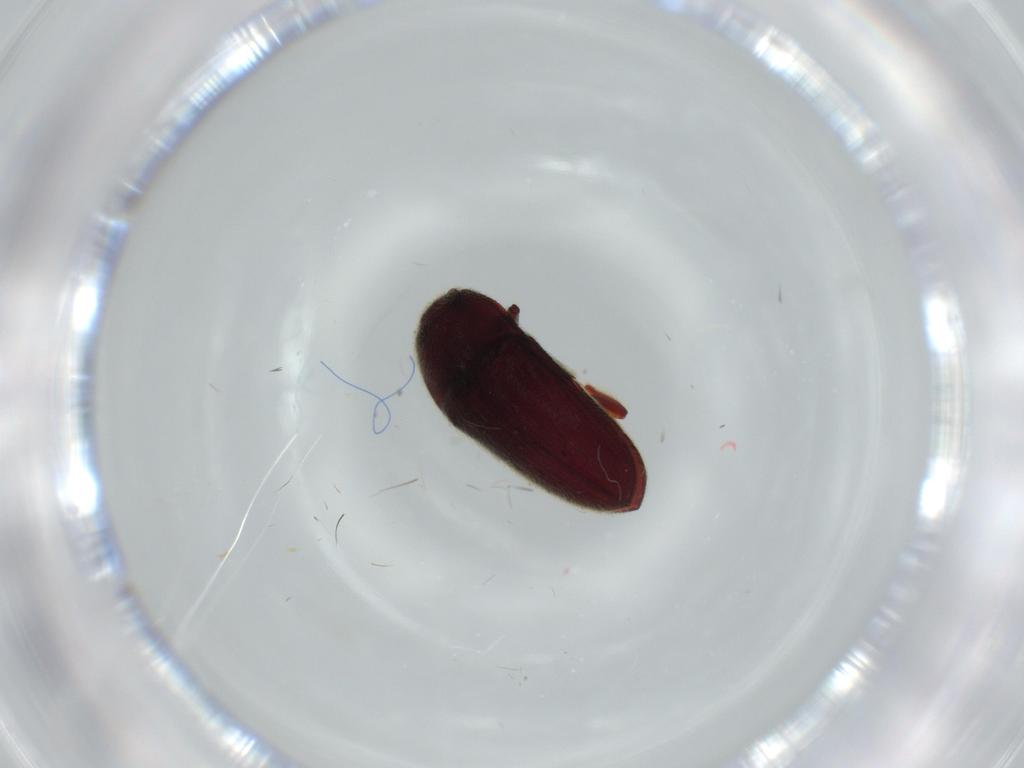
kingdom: Animalia
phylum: Arthropoda
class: Insecta
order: Coleoptera
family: Throscidae
